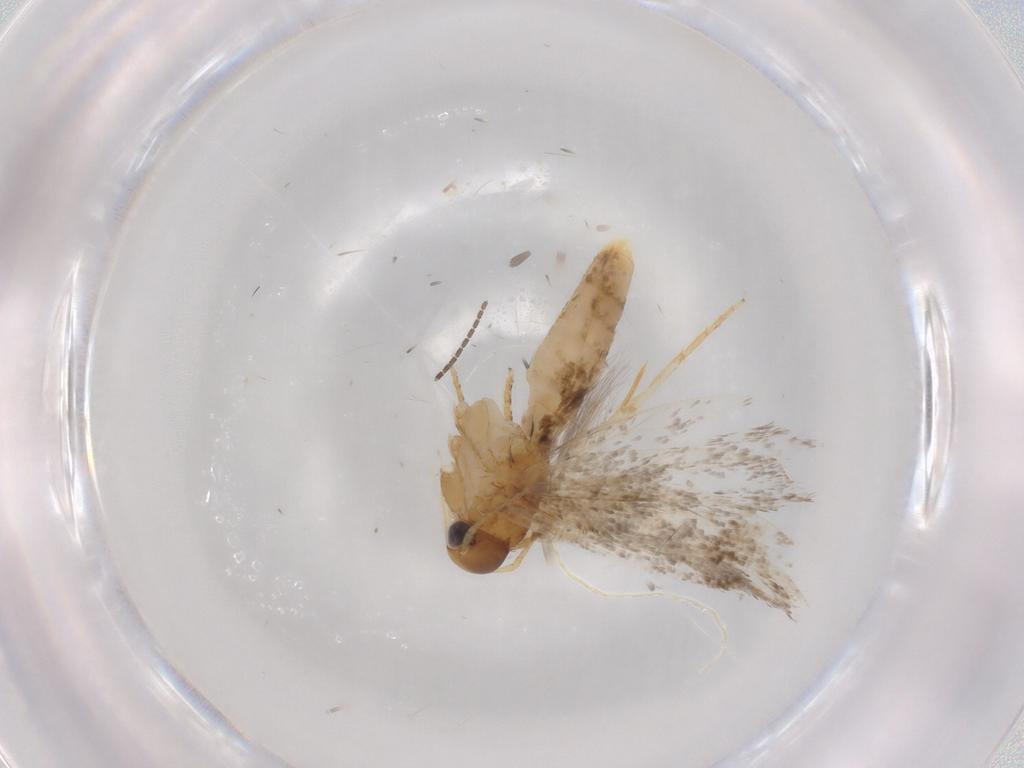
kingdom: Animalia
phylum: Arthropoda
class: Insecta
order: Lepidoptera
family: Gelechiidae
